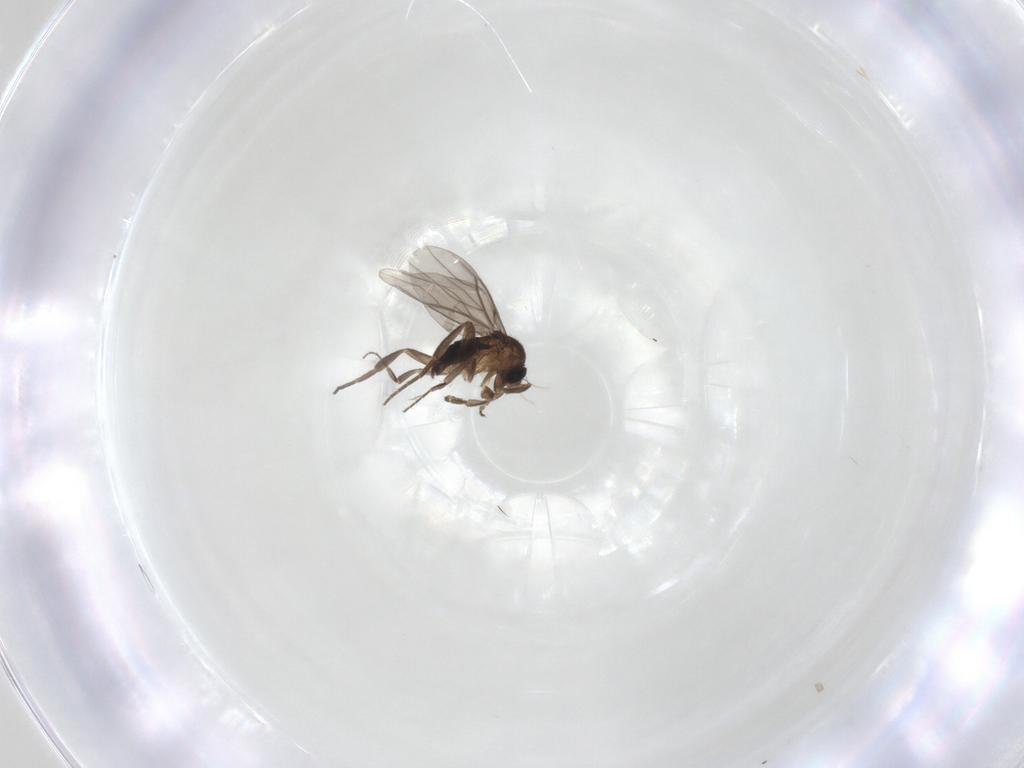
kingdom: Animalia
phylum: Arthropoda
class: Insecta
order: Diptera
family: Phoridae
